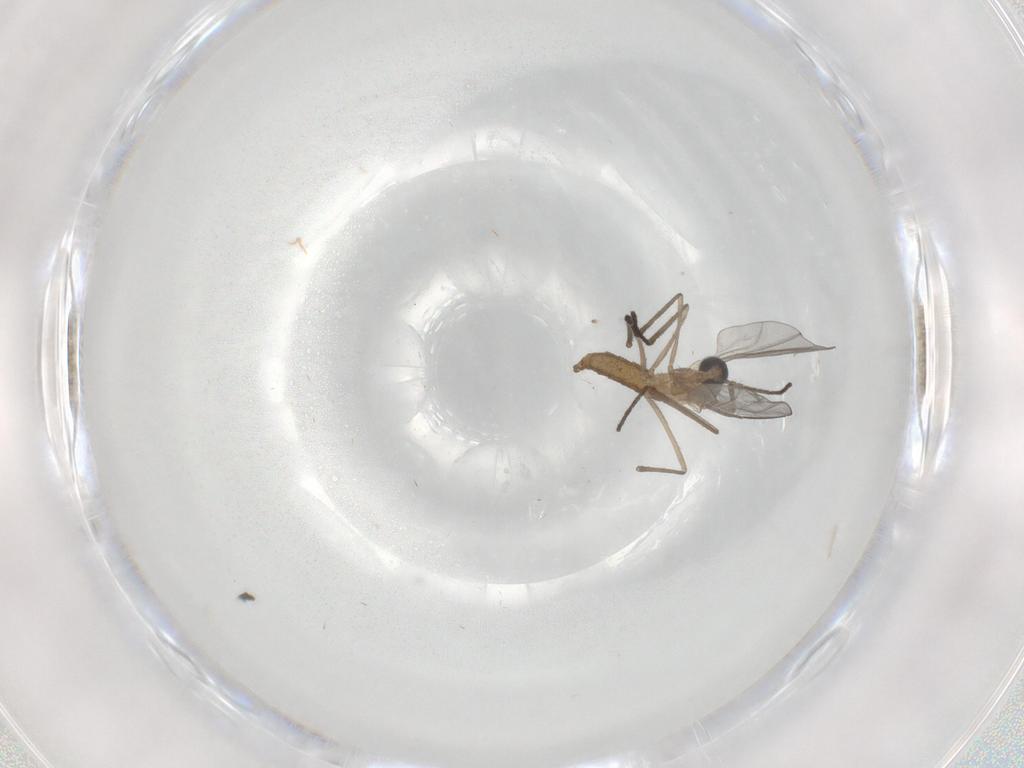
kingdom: Animalia
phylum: Arthropoda
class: Insecta
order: Diptera
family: Cecidomyiidae
